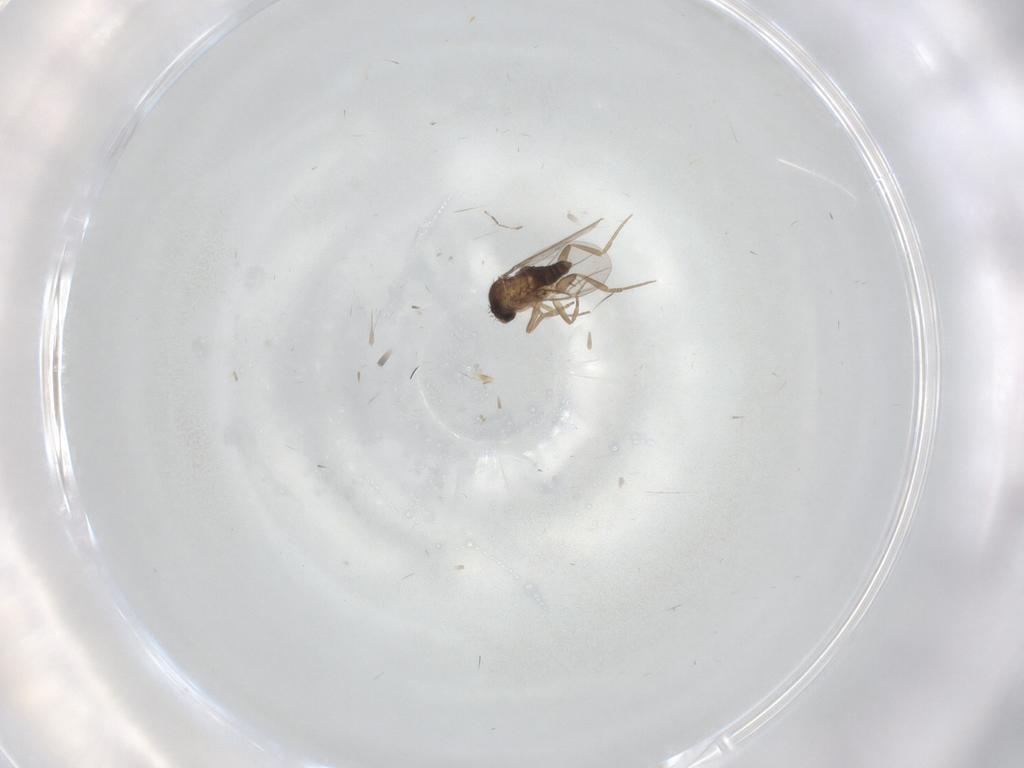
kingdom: Animalia
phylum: Arthropoda
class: Insecta
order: Diptera
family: Phoridae
